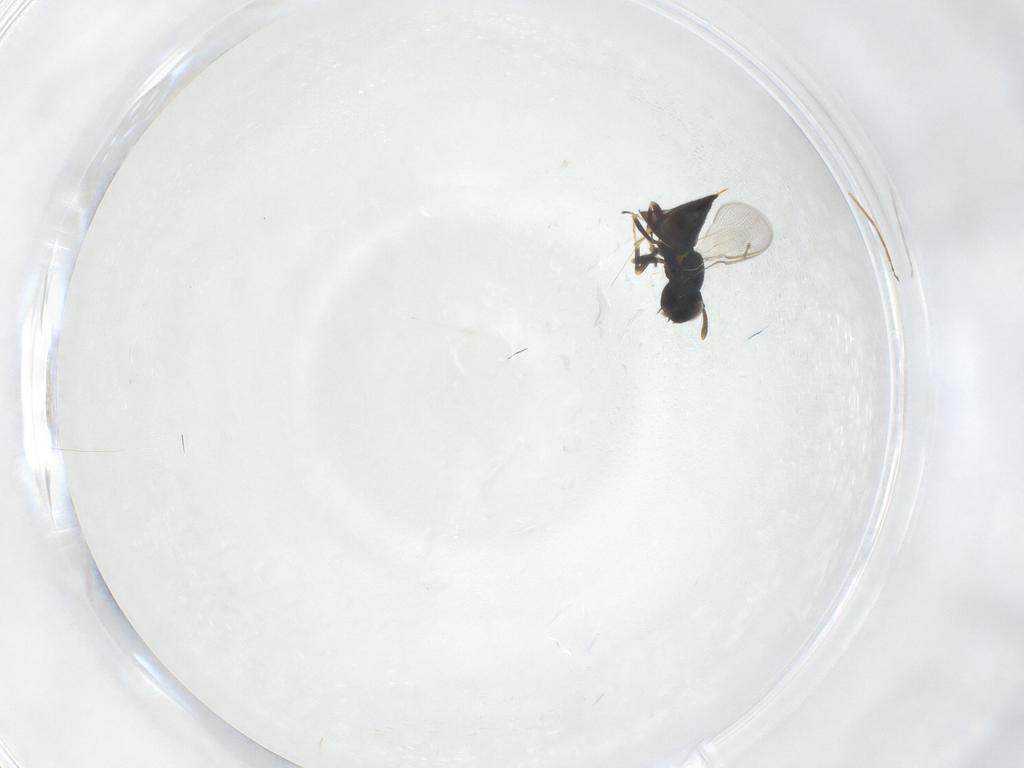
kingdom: Animalia
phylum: Arthropoda
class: Insecta
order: Hymenoptera
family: Pteromalidae
